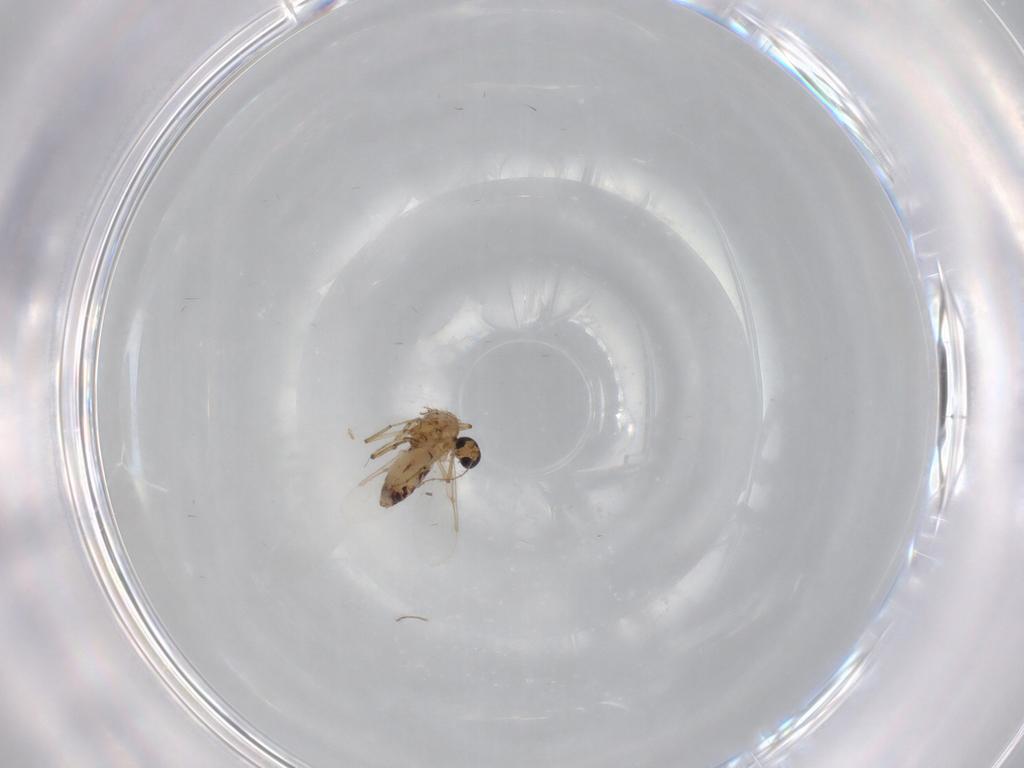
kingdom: Animalia
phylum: Arthropoda
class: Insecta
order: Diptera
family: Ceratopogonidae
